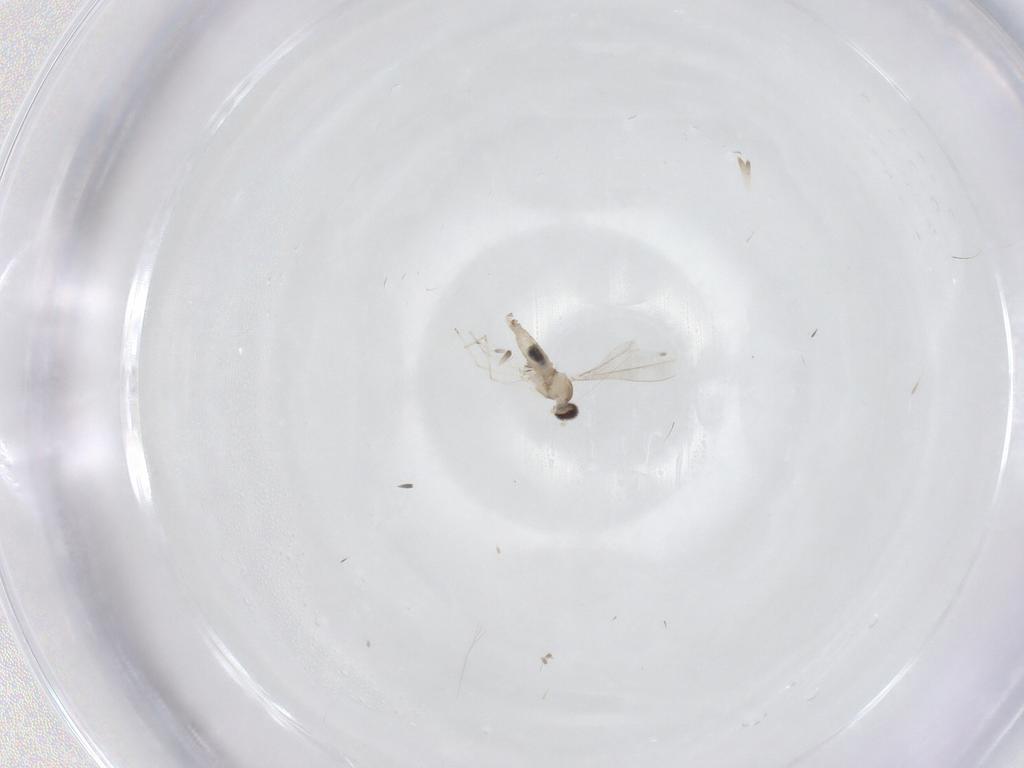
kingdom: Animalia
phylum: Arthropoda
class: Insecta
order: Diptera
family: Cecidomyiidae
